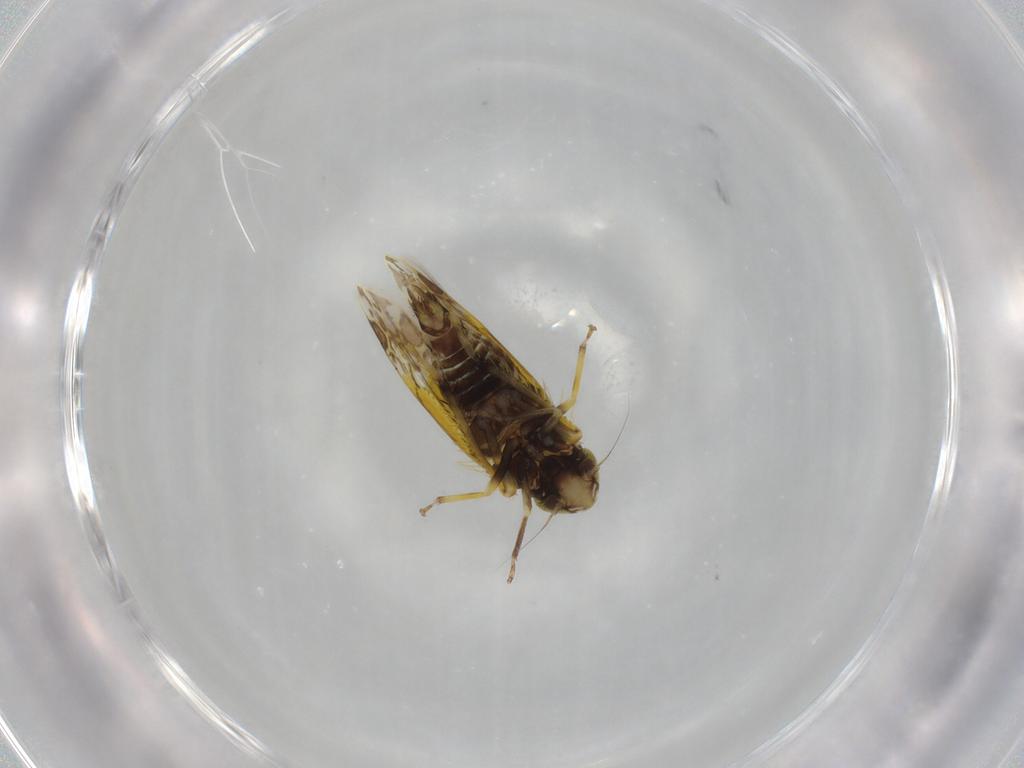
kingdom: Animalia
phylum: Arthropoda
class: Insecta
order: Hemiptera
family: Cicadellidae
